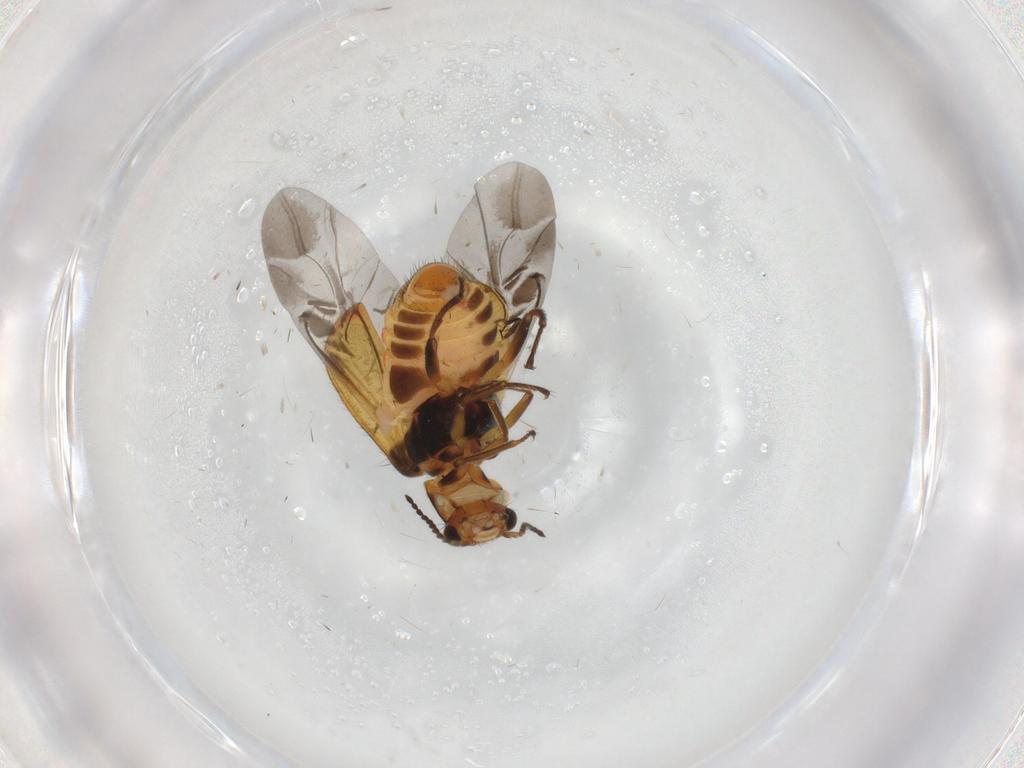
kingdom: Animalia
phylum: Arthropoda
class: Insecta
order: Coleoptera
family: Melyridae
